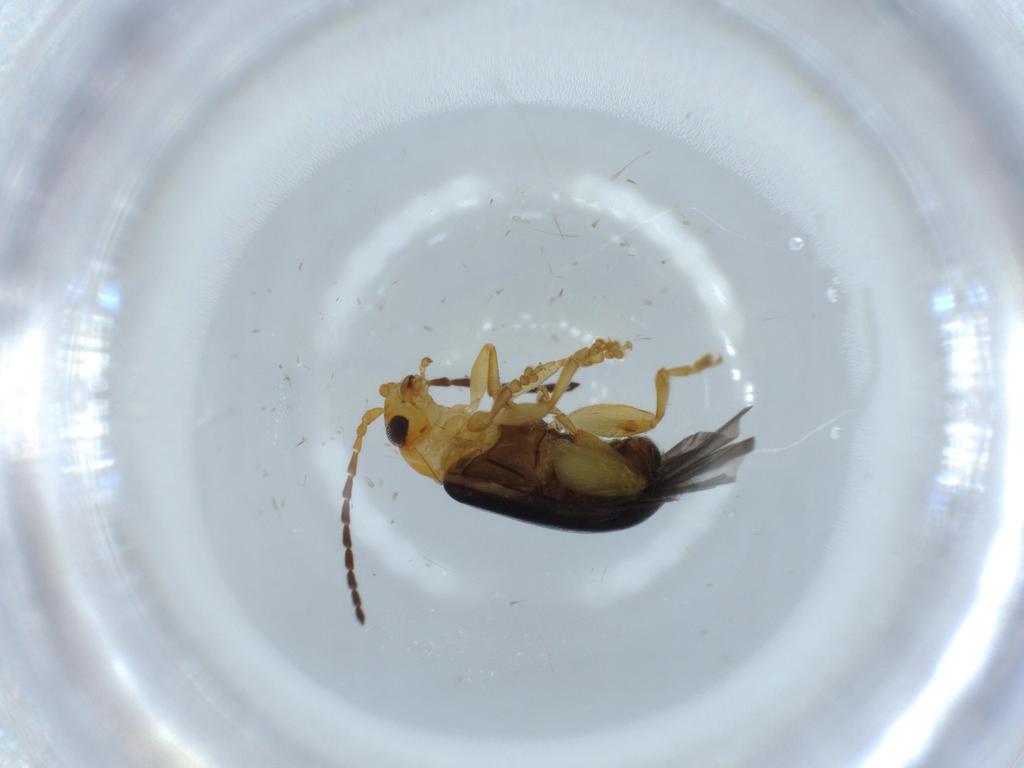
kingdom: Animalia
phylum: Arthropoda
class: Insecta
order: Coleoptera
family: Chrysomelidae
